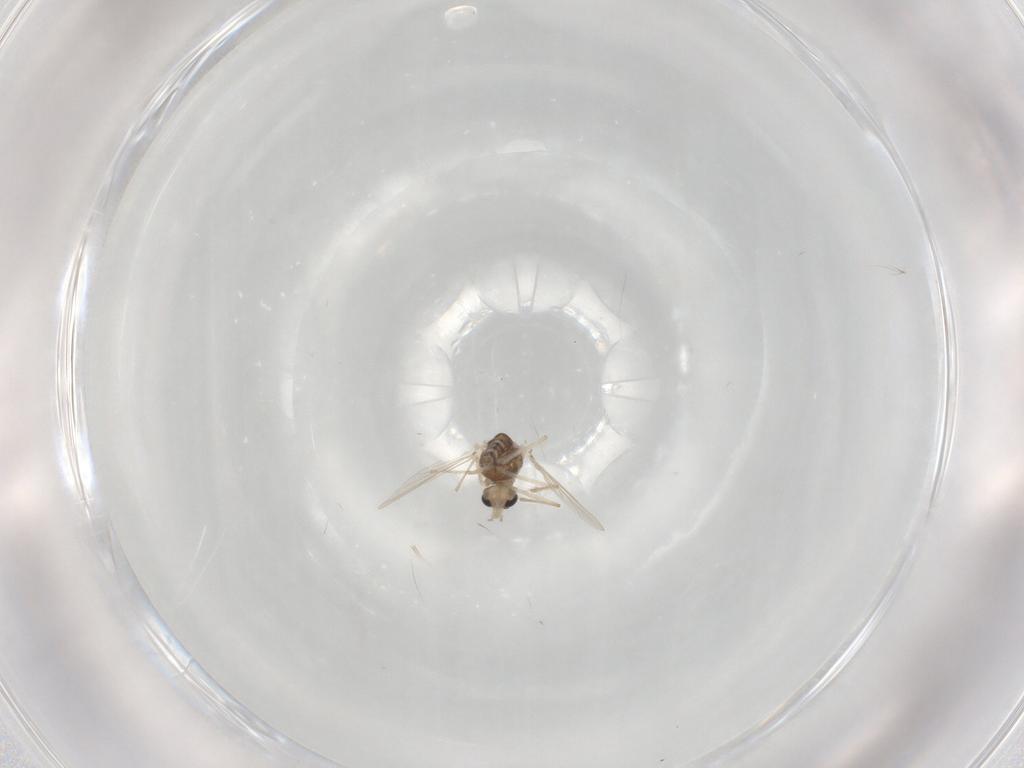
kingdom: Animalia
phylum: Arthropoda
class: Insecta
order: Diptera
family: Chironomidae
